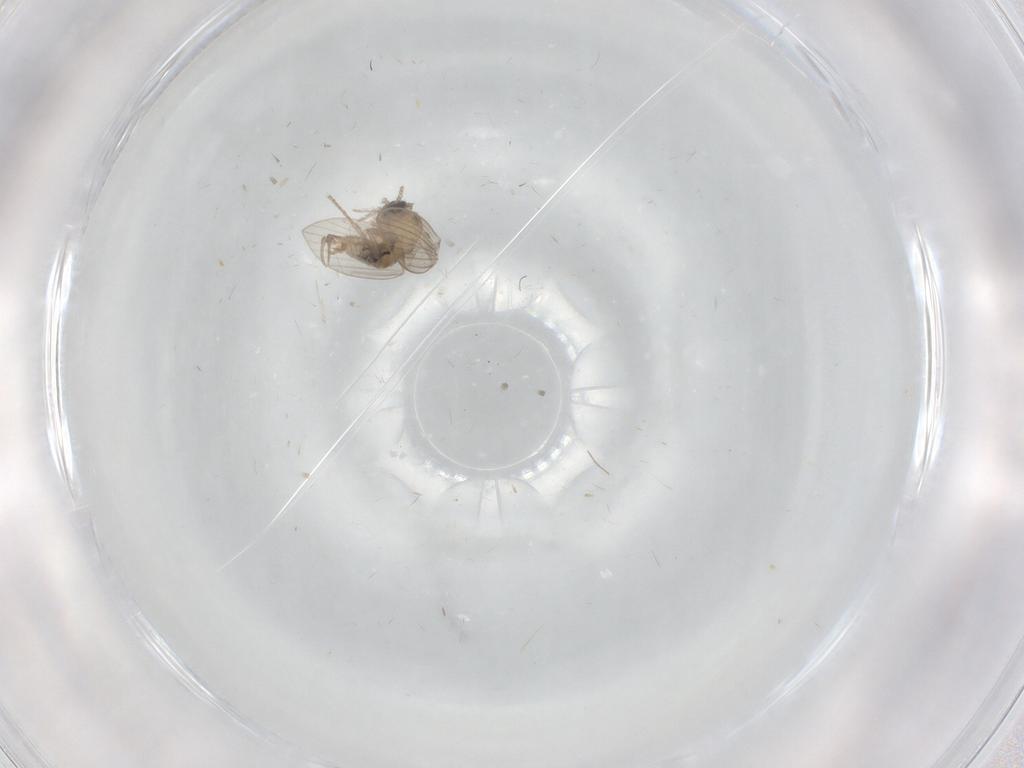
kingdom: Animalia
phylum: Arthropoda
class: Insecta
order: Diptera
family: Psychodidae
